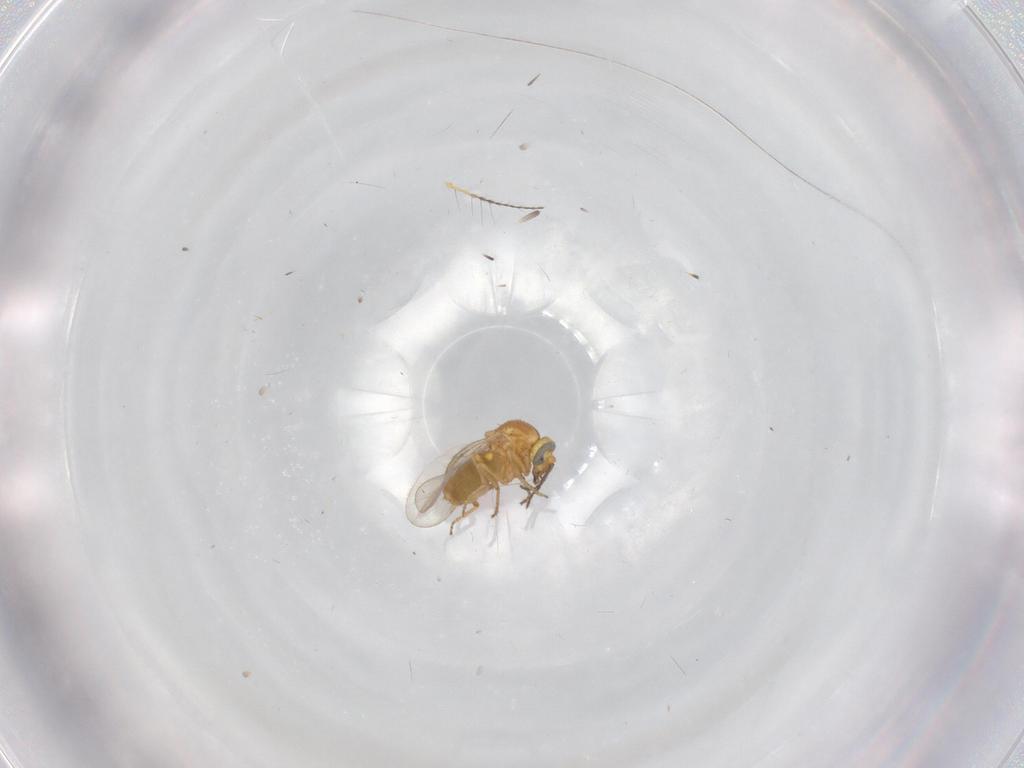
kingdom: Animalia
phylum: Arthropoda
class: Insecta
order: Diptera
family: Ceratopogonidae
